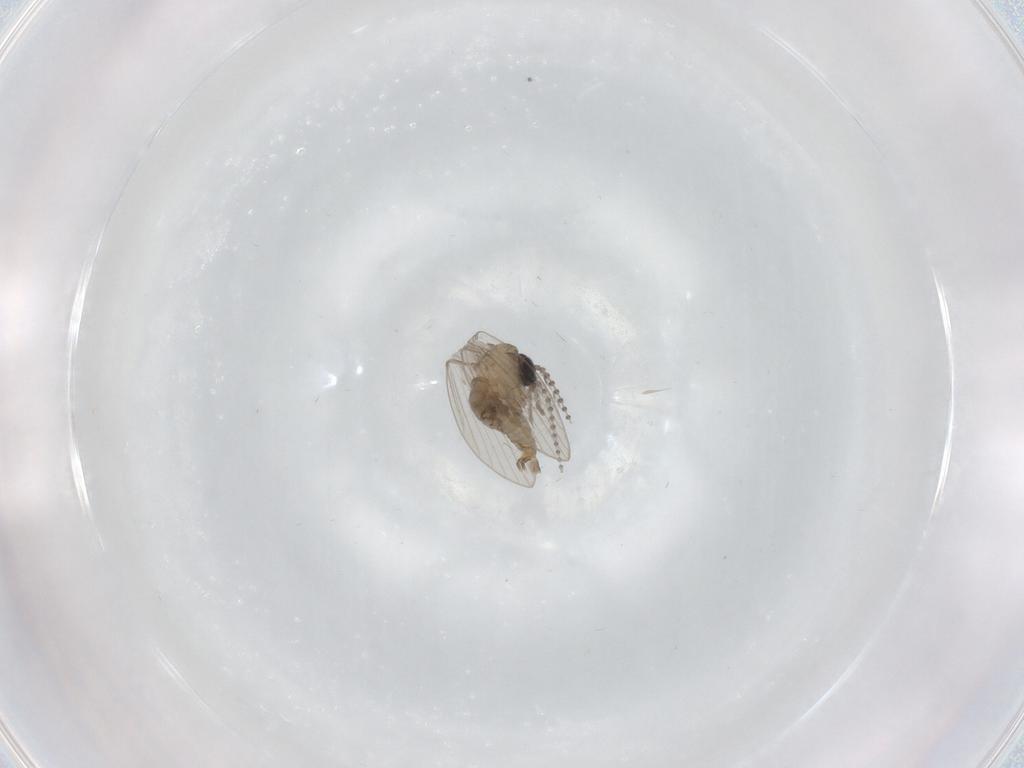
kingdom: Animalia
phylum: Arthropoda
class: Insecta
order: Diptera
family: Psychodidae
